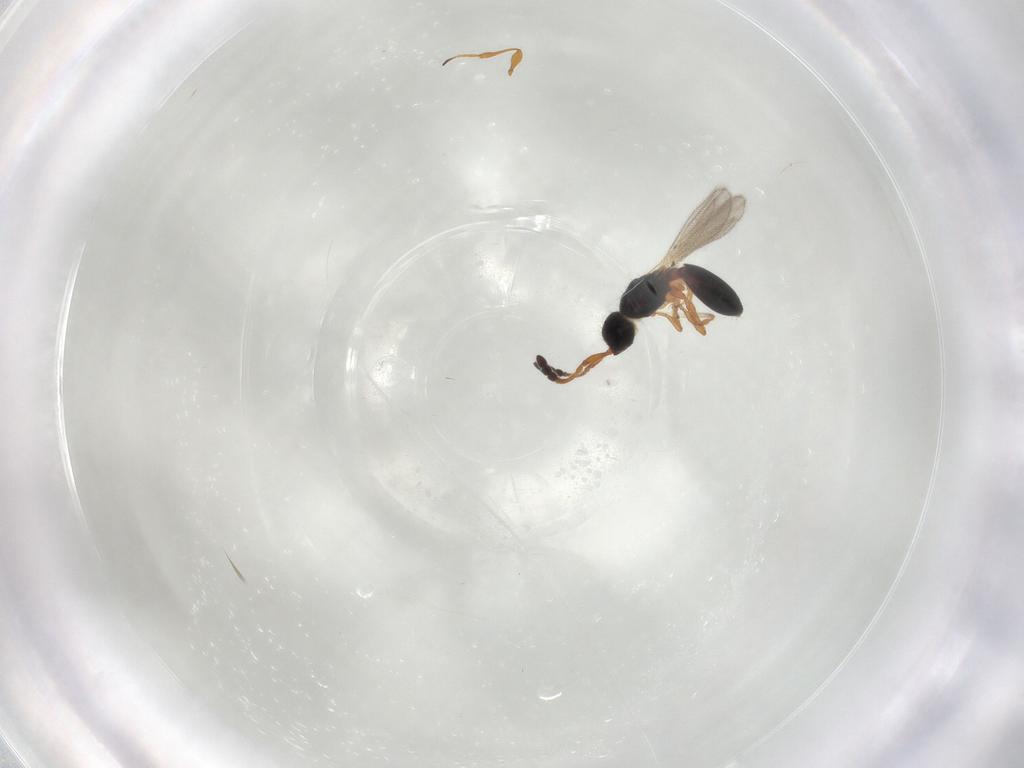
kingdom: Animalia
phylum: Arthropoda
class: Insecta
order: Hymenoptera
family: Diapriidae
